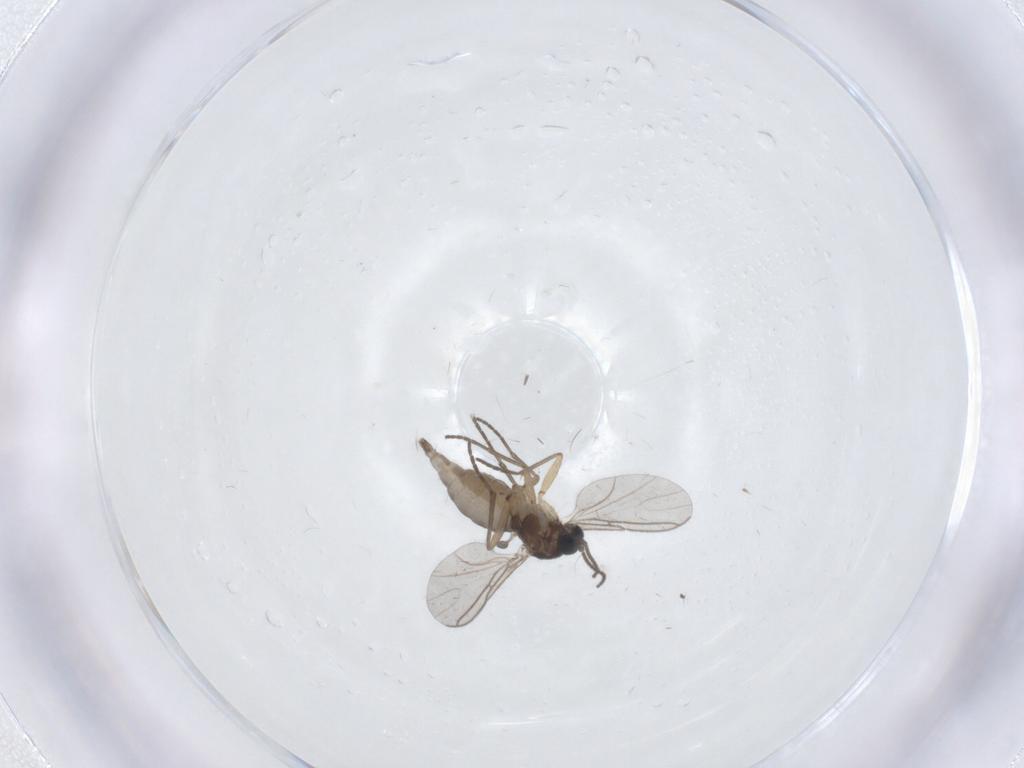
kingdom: Animalia
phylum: Arthropoda
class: Insecta
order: Diptera
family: Sciaridae
